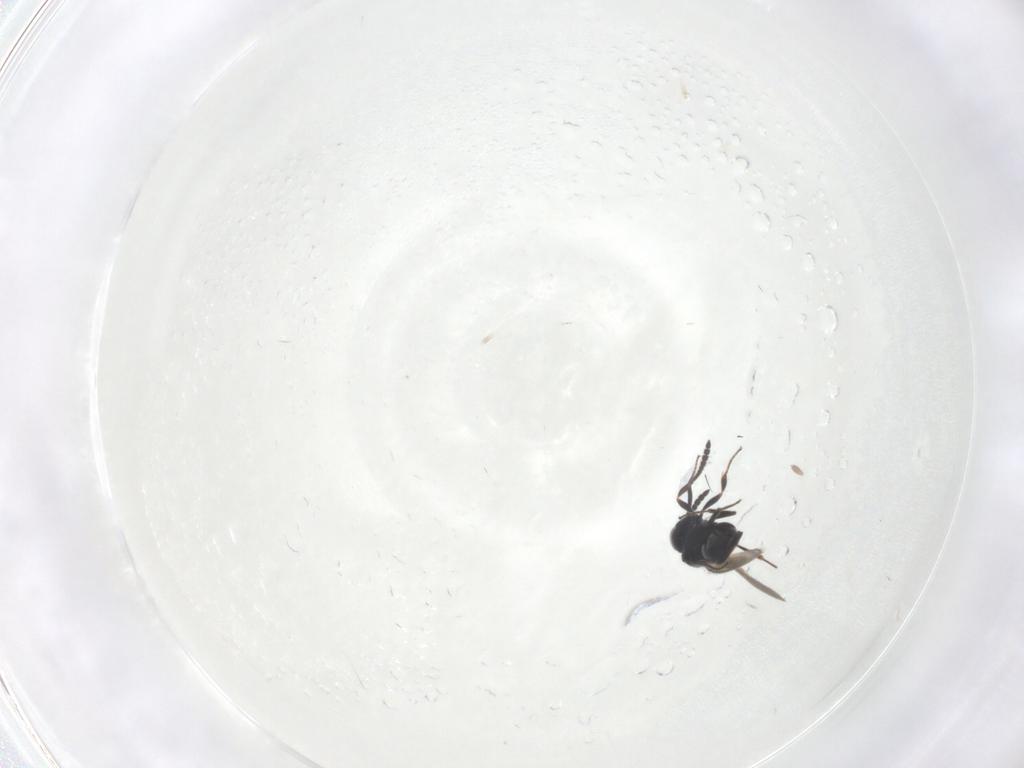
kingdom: Animalia
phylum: Arthropoda
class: Insecta
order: Hymenoptera
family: Scelionidae
